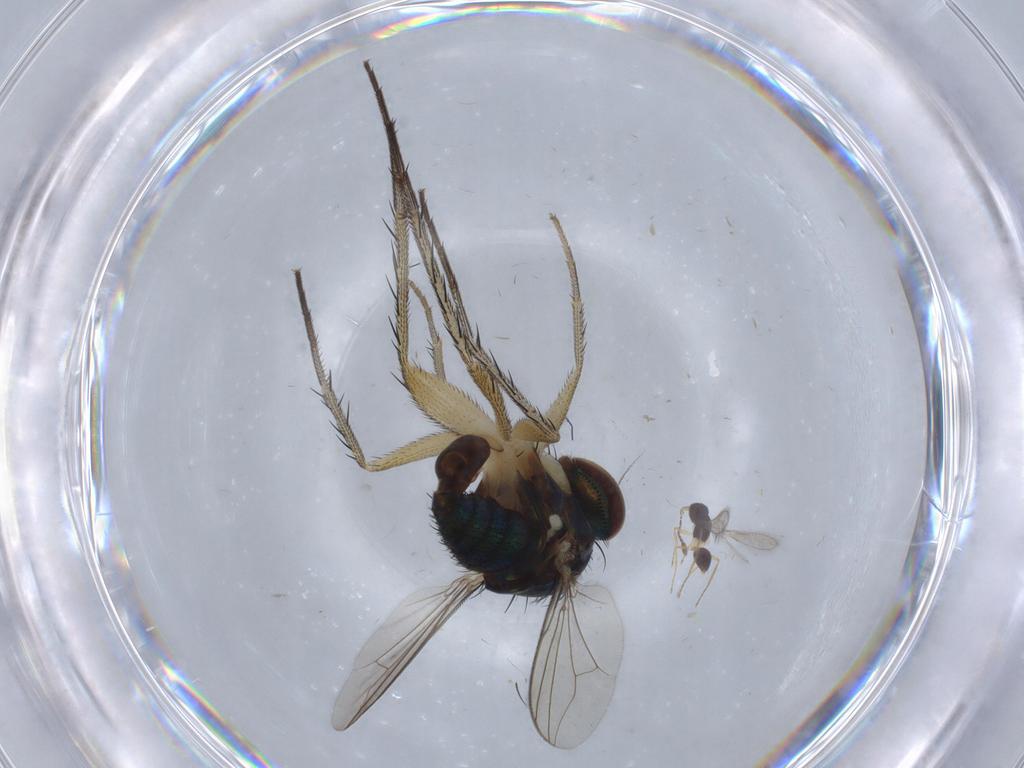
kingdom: Animalia
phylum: Arthropoda
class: Insecta
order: Diptera
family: Dolichopodidae
